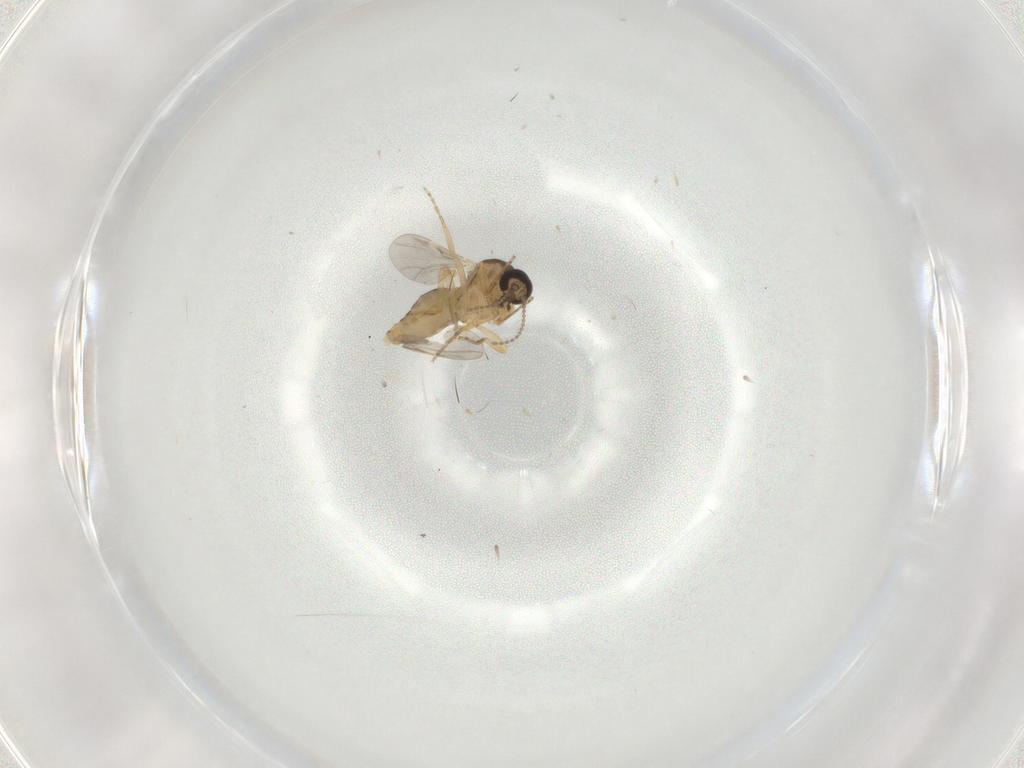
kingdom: Animalia
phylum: Arthropoda
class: Insecta
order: Diptera
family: Ceratopogonidae
